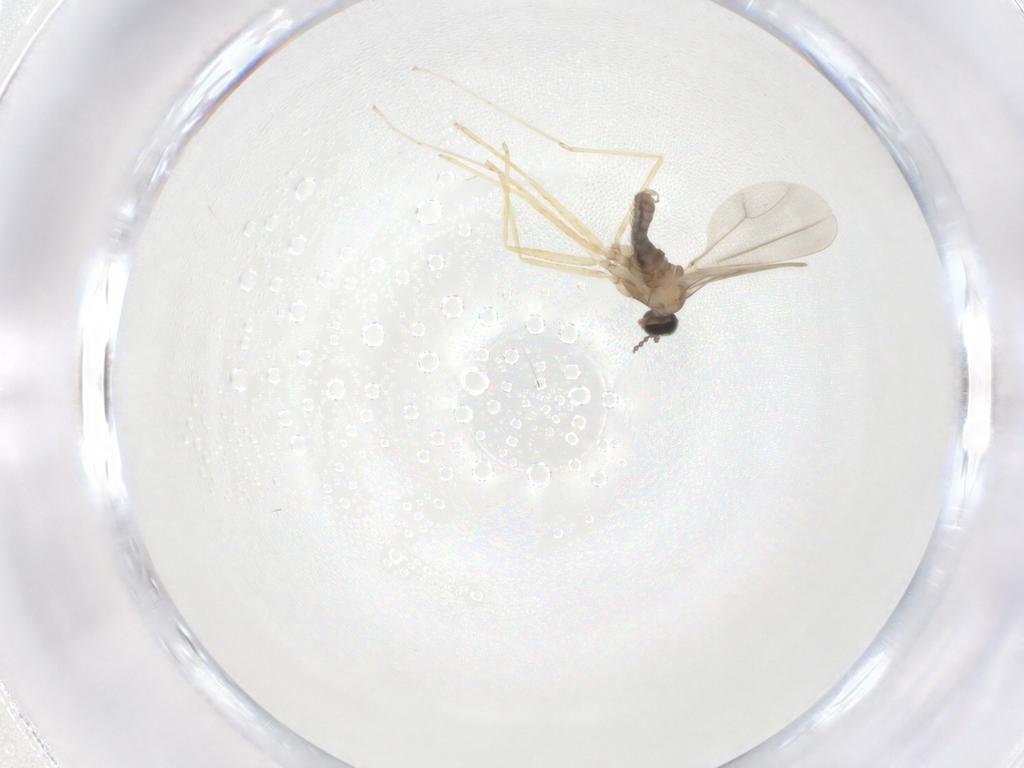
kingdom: Animalia
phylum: Arthropoda
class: Insecta
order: Diptera
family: Cecidomyiidae
